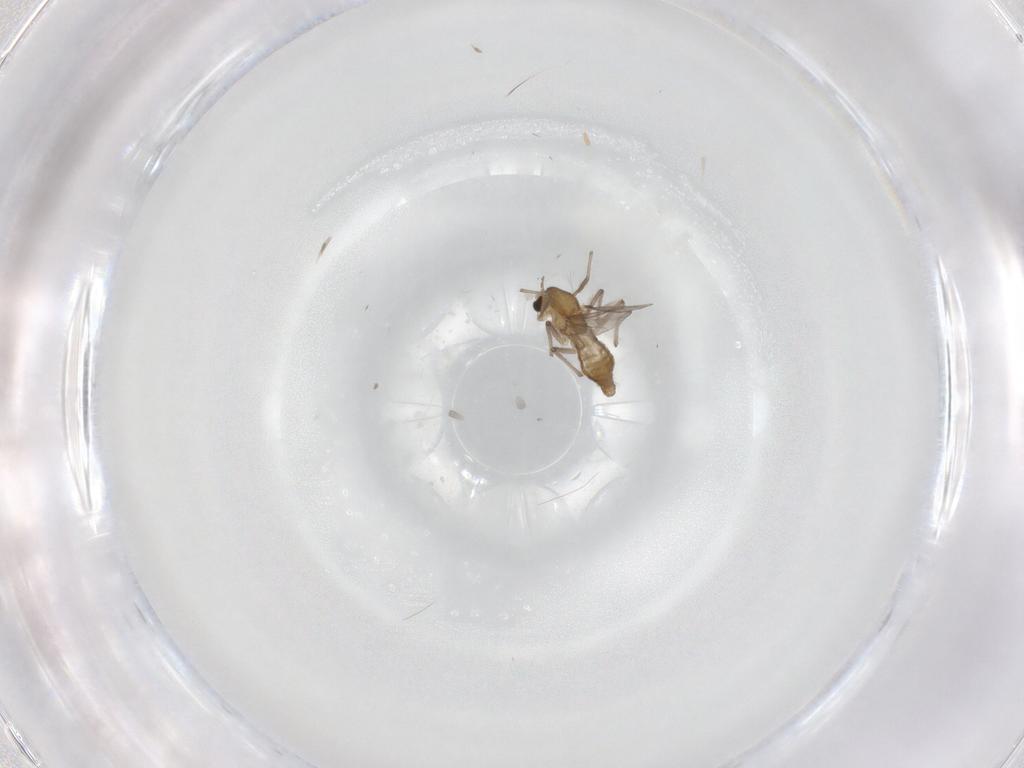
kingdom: Animalia
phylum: Arthropoda
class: Insecta
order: Diptera
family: Chironomidae
